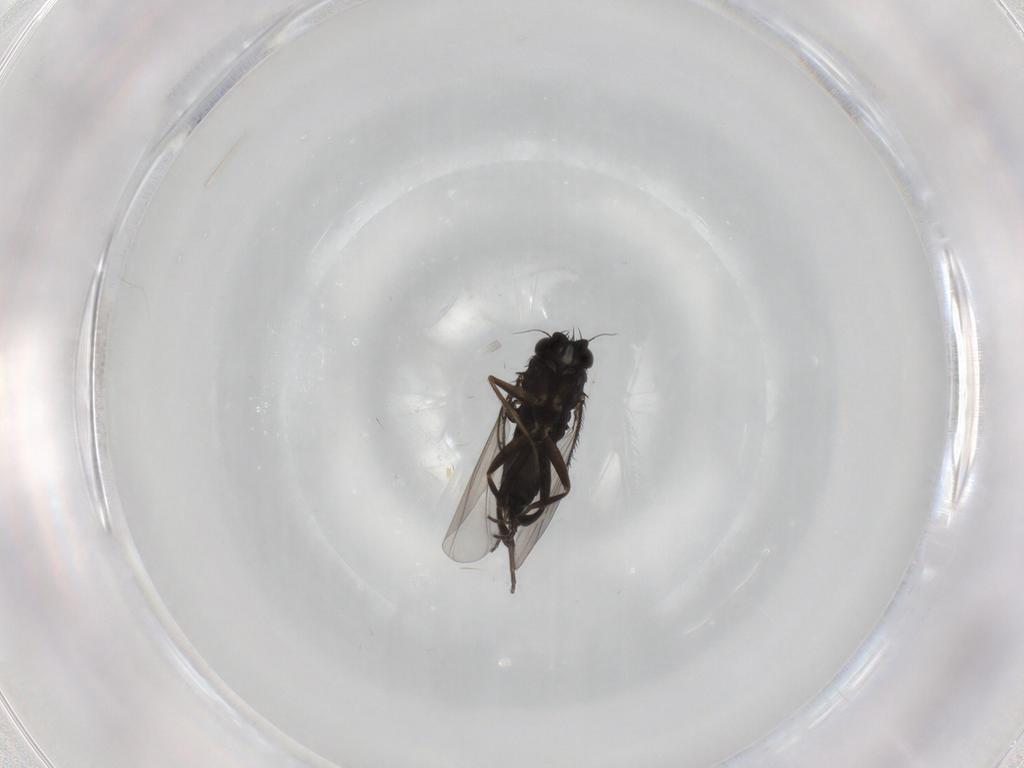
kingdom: Animalia
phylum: Arthropoda
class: Insecta
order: Diptera
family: Phoridae
